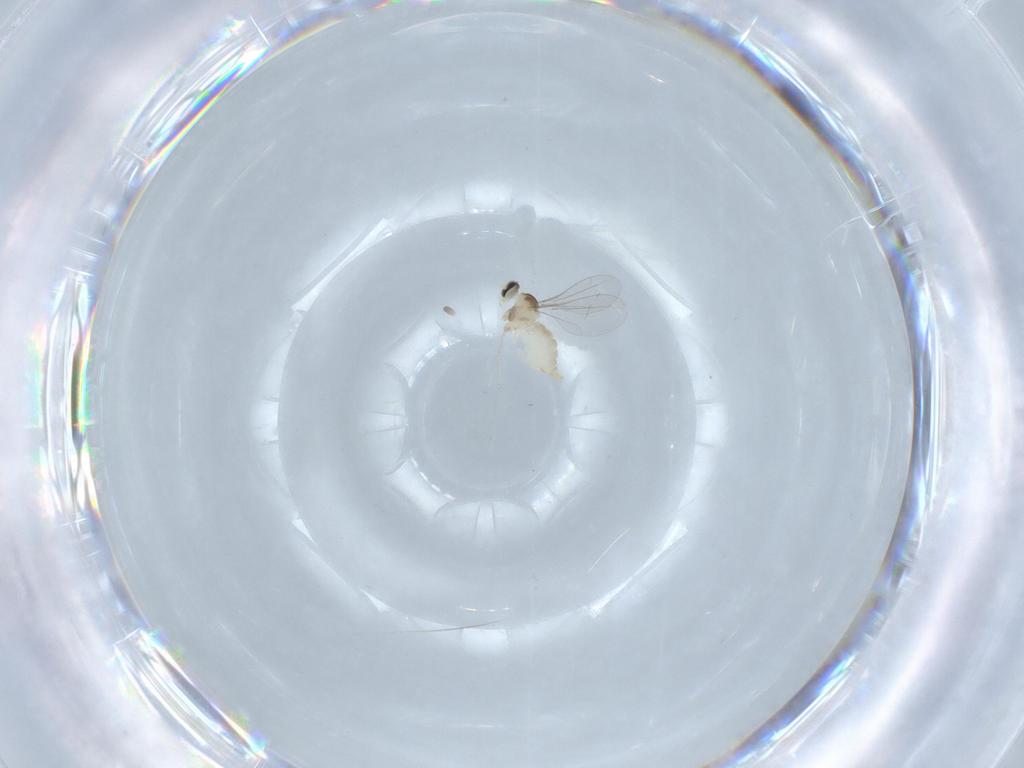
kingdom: Animalia
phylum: Arthropoda
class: Insecta
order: Diptera
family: Cecidomyiidae
